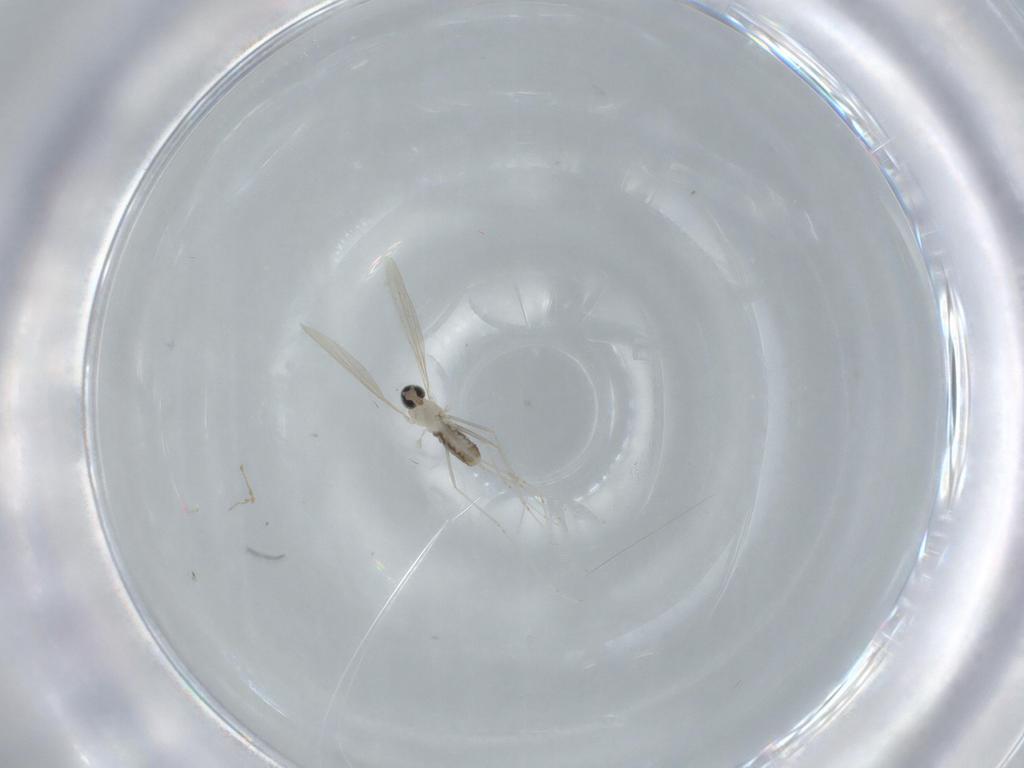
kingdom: Animalia
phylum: Arthropoda
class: Insecta
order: Diptera
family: Cecidomyiidae
